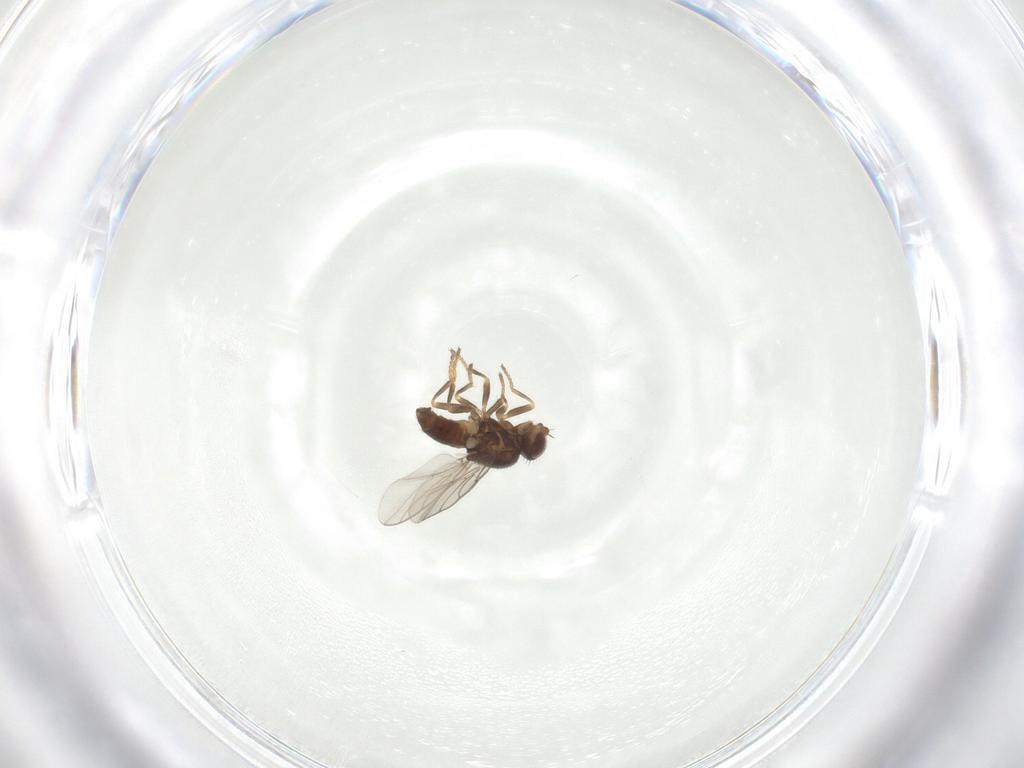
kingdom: Animalia
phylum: Arthropoda
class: Insecta
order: Diptera
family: Chloropidae
